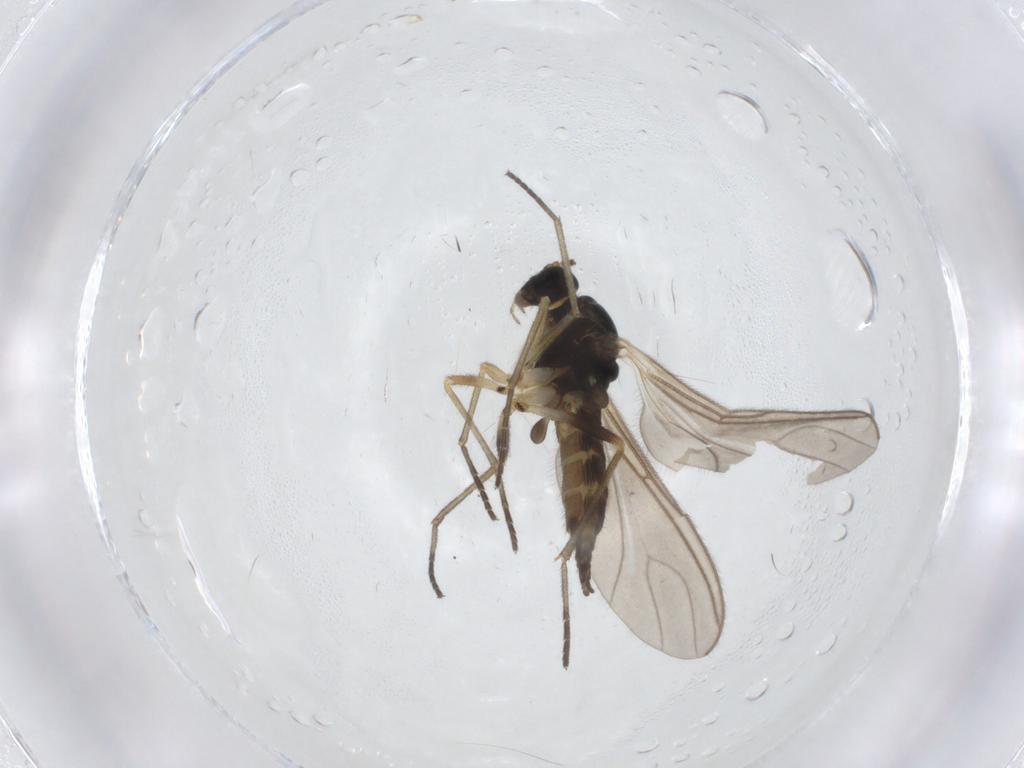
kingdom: Animalia
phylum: Arthropoda
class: Insecta
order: Diptera
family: Sciaridae
